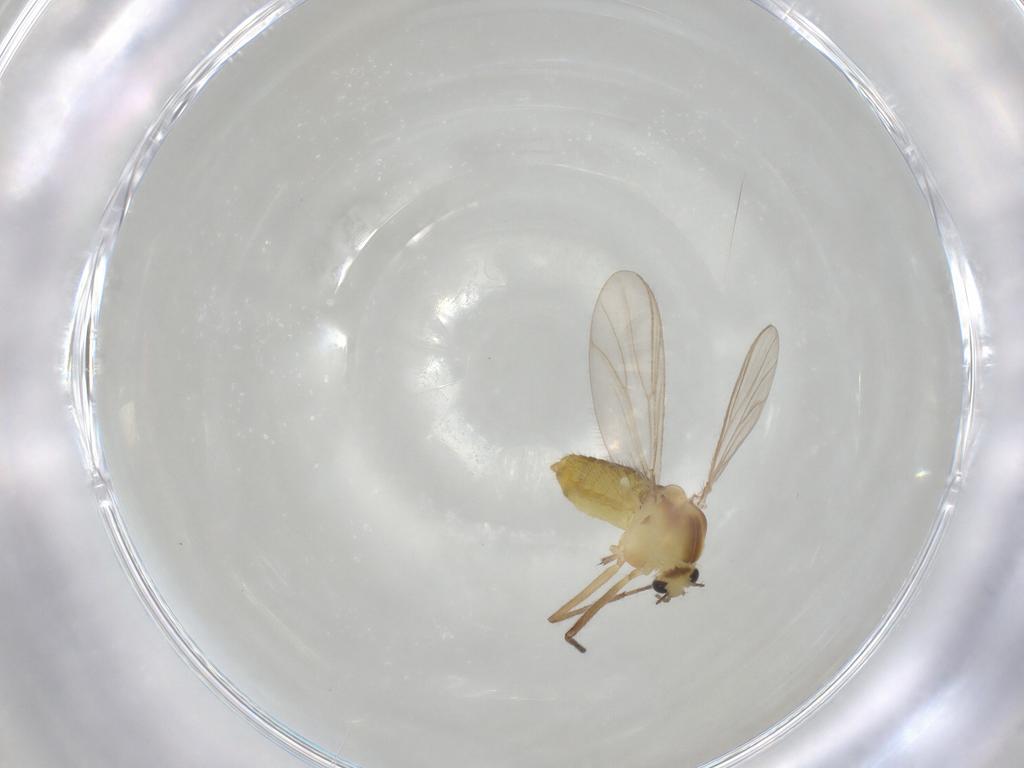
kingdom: Animalia
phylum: Arthropoda
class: Insecta
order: Diptera
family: Chironomidae
